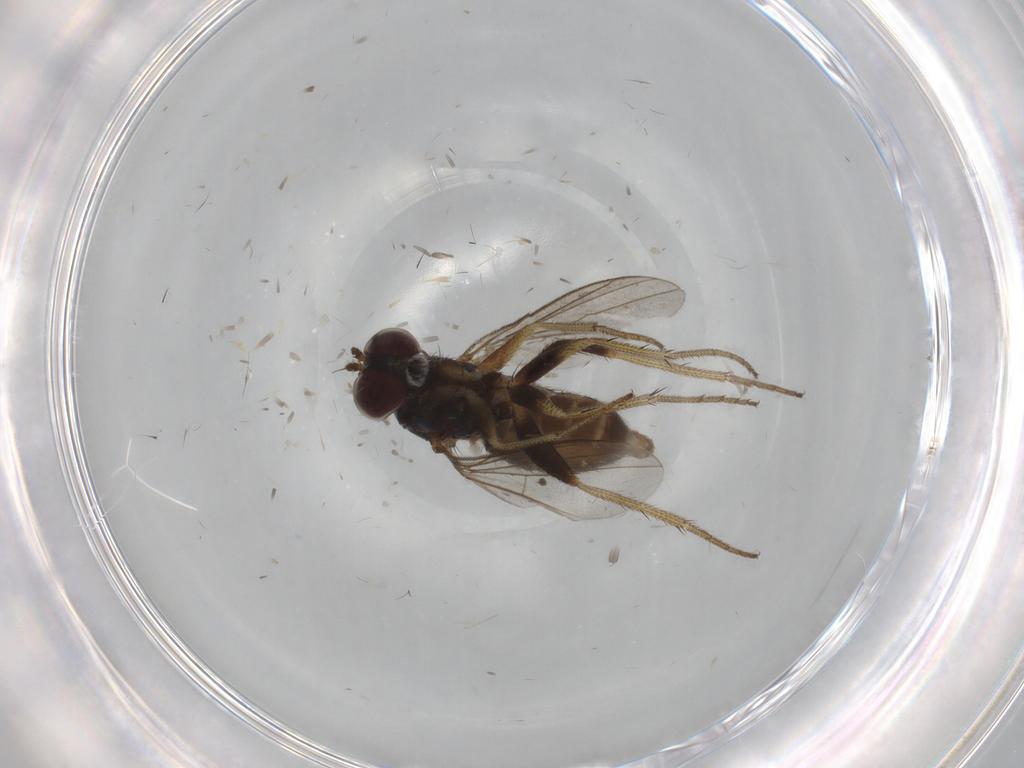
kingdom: Animalia
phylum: Arthropoda
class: Insecta
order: Diptera
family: Dolichopodidae
